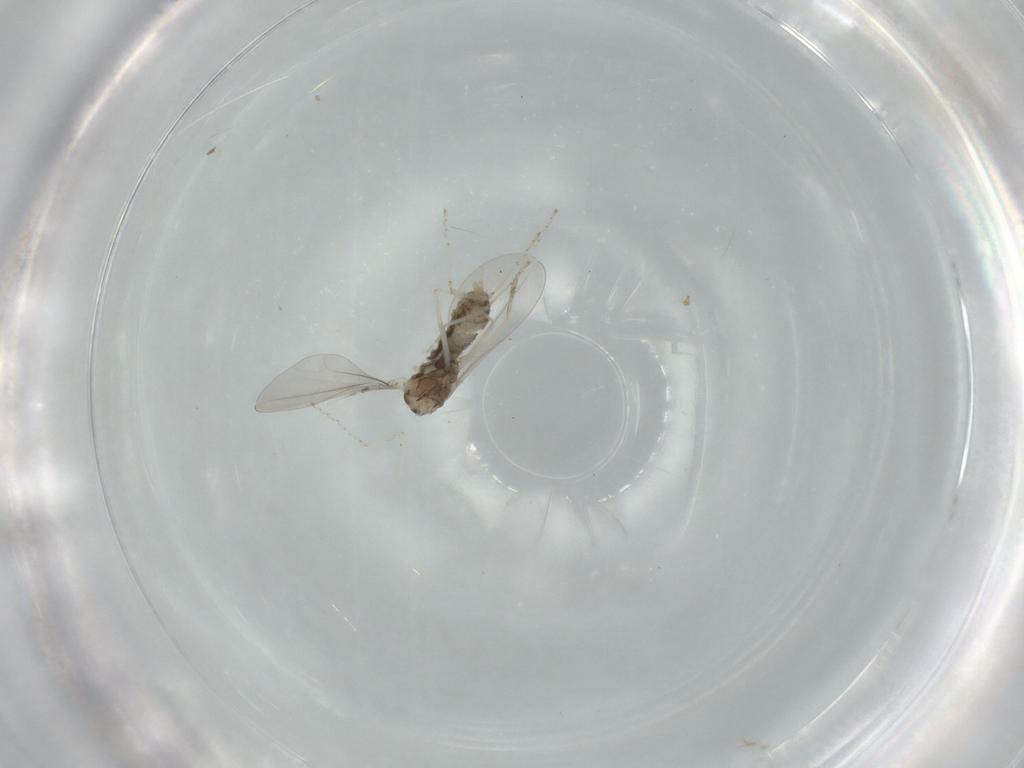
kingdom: Animalia
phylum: Arthropoda
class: Insecta
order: Diptera
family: Cecidomyiidae
